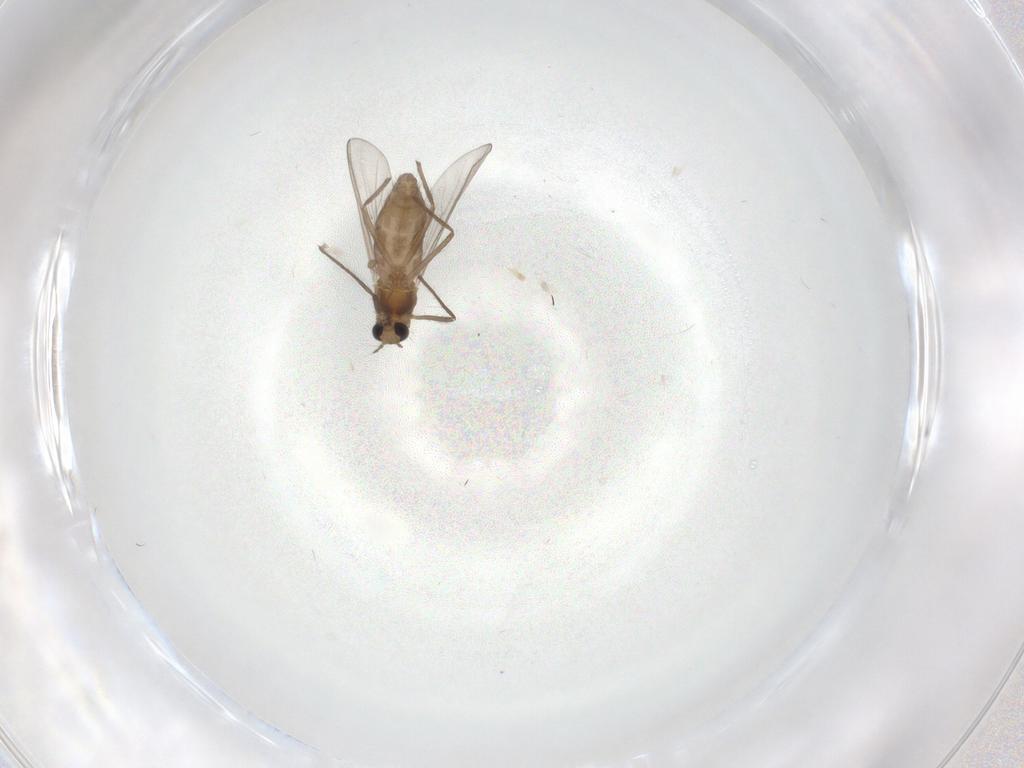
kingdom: Animalia
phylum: Arthropoda
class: Insecta
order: Diptera
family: Chironomidae
